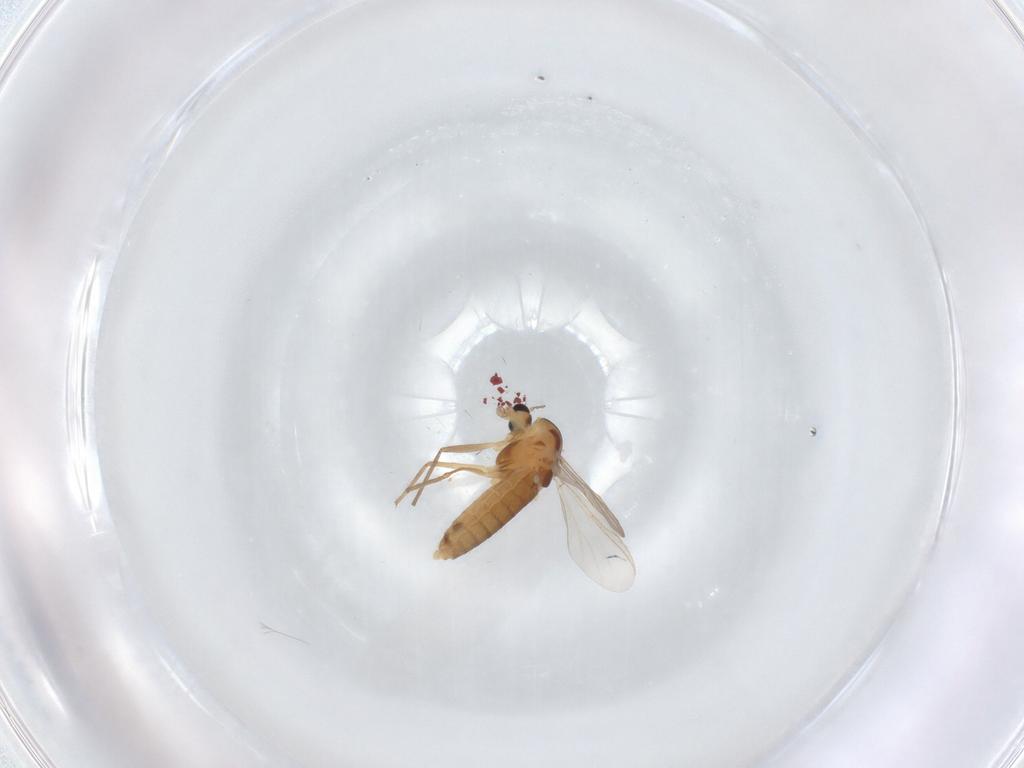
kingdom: Animalia
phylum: Arthropoda
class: Insecta
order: Diptera
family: Chironomidae
